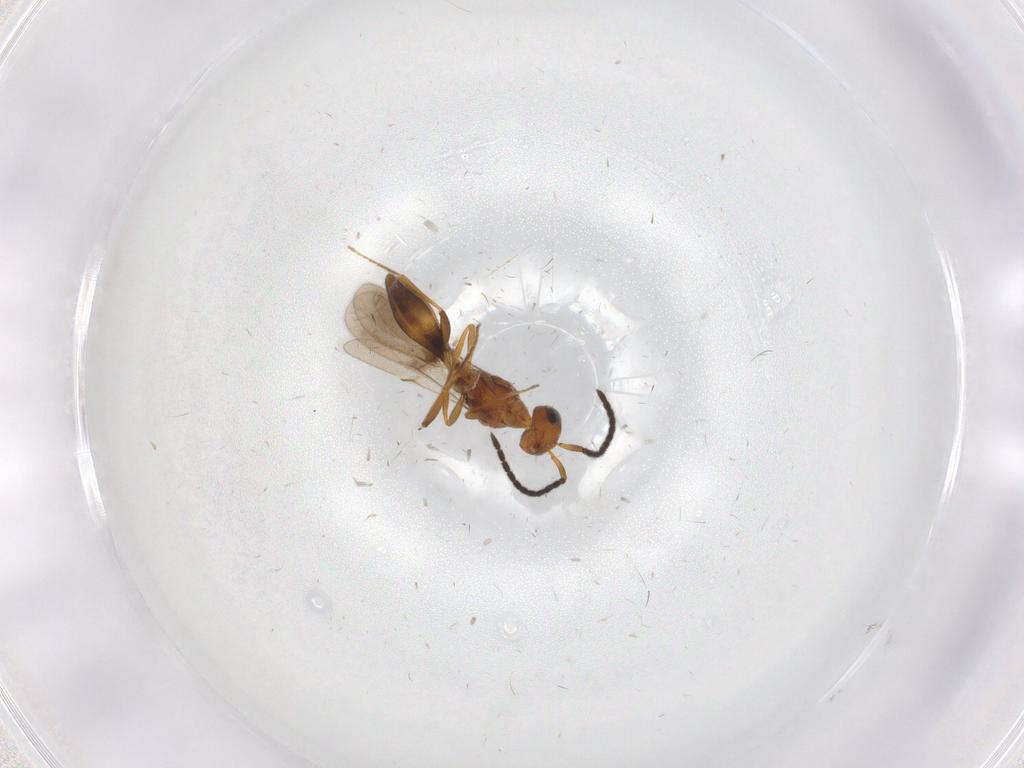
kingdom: Animalia
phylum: Arthropoda
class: Insecta
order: Hymenoptera
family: Scelionidae
